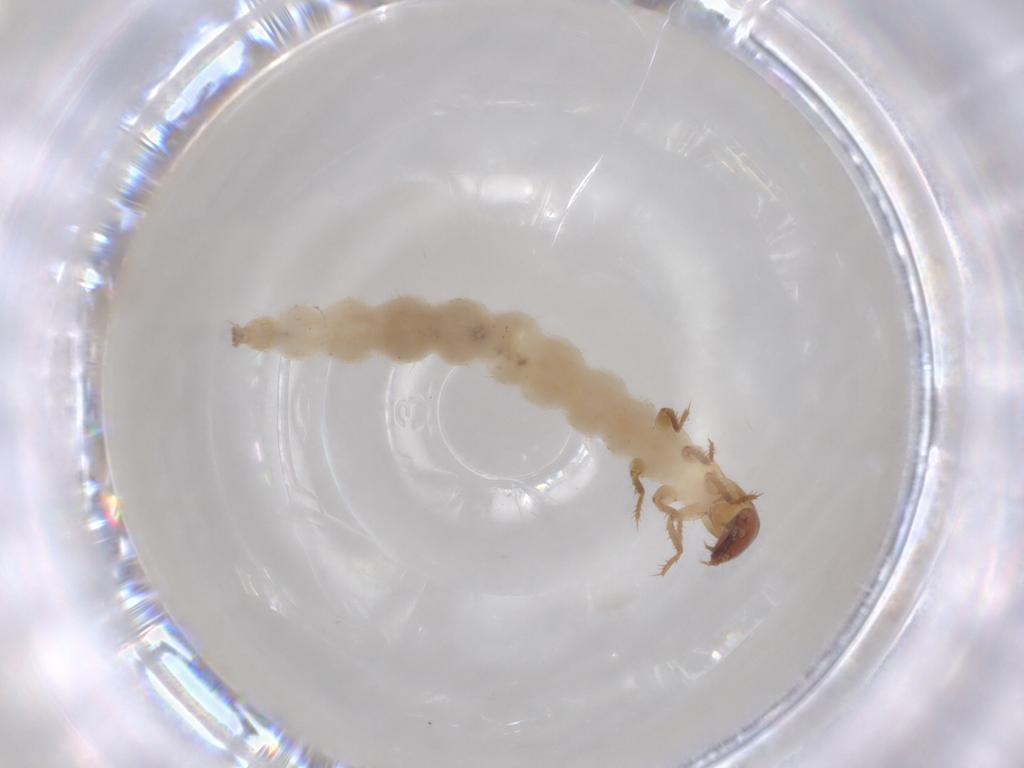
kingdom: Animalia
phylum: Arthropoda
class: Insecta
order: Coleoptera
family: Staphylinidae
